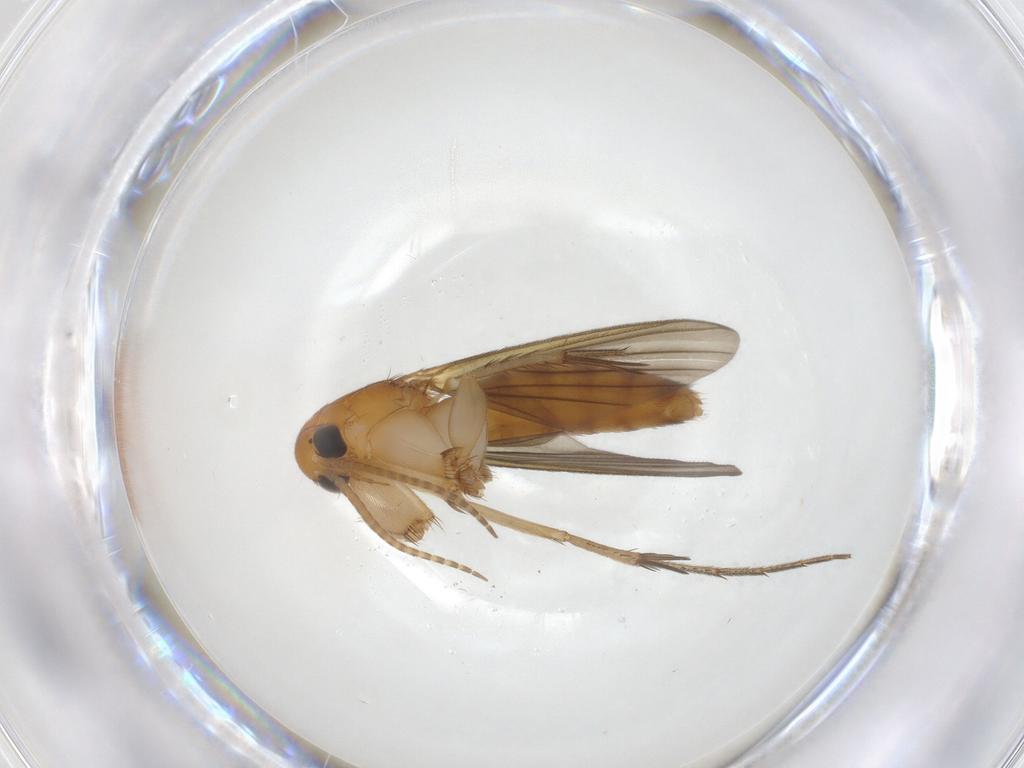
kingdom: Animalia
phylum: Arthropoda
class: Insecta
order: Diptera
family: Mycetophilidae
